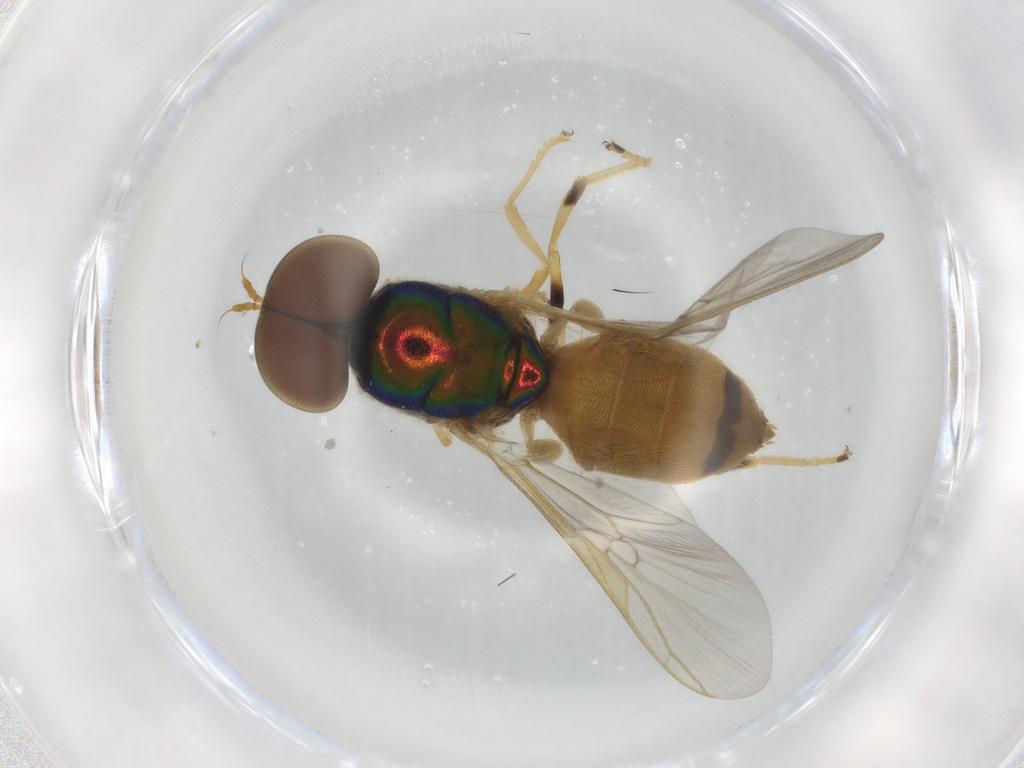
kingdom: Animalia
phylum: Arthropoda
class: Insecta
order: Diptera
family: Stratiomyidae
